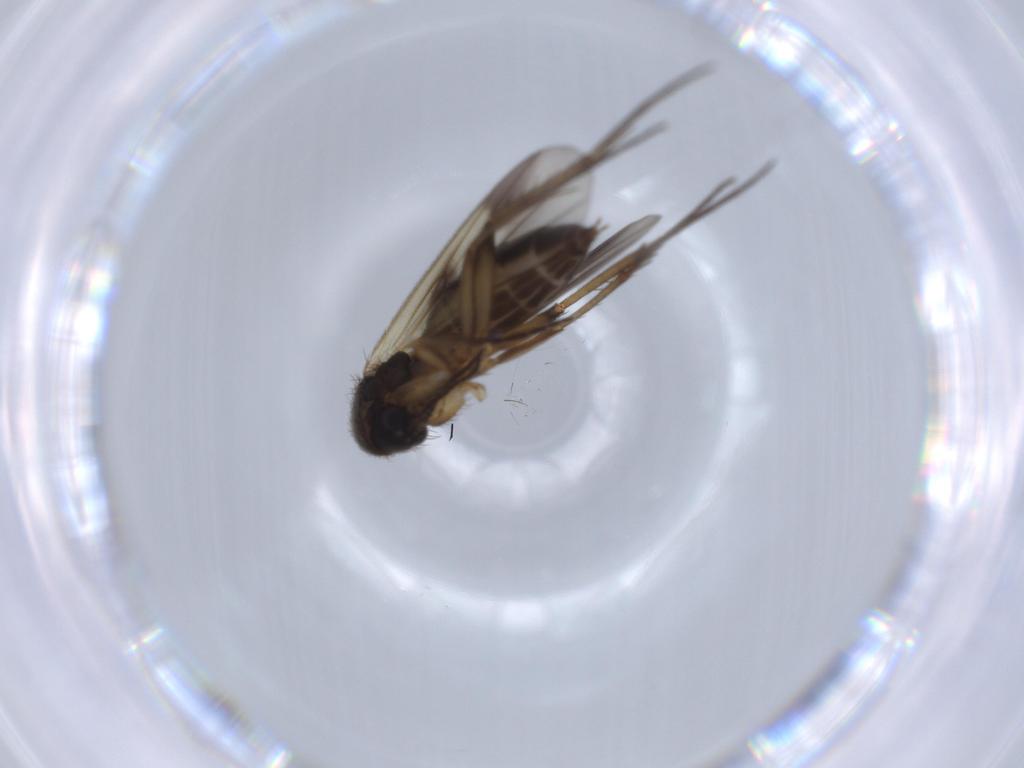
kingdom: Animalia
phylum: Arthropoda
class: Insecta
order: Diptera
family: Sciaridae
